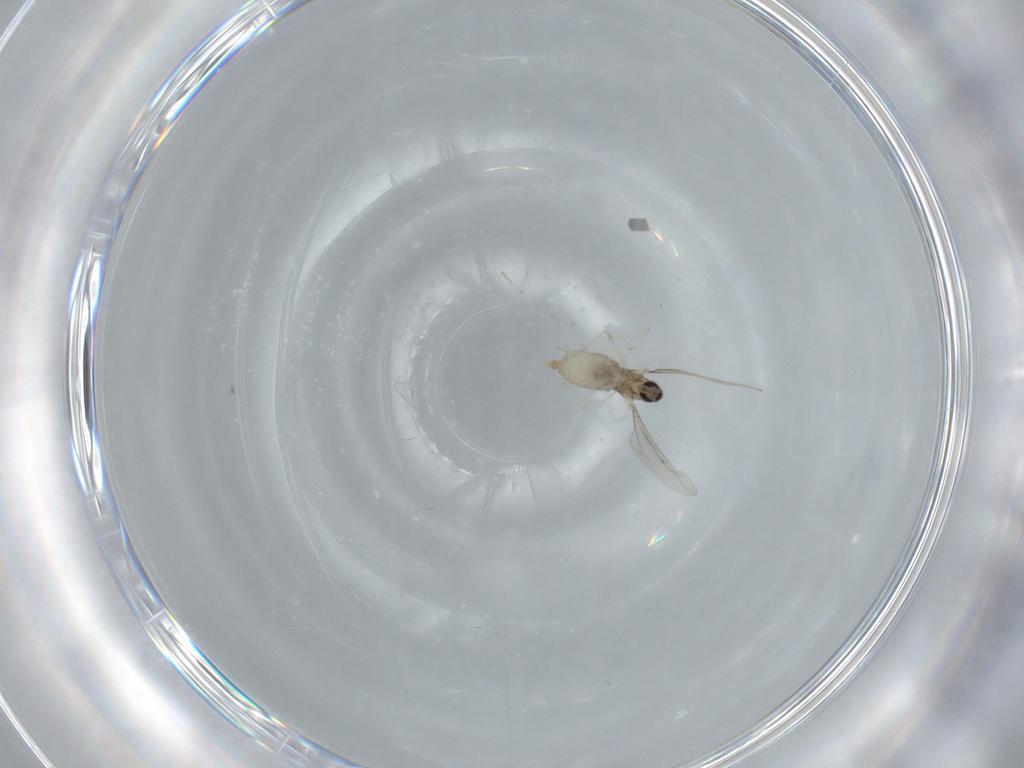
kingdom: Animalia
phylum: Arthropoda
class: Insecta
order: Diptera
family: Cecidomyiidae
